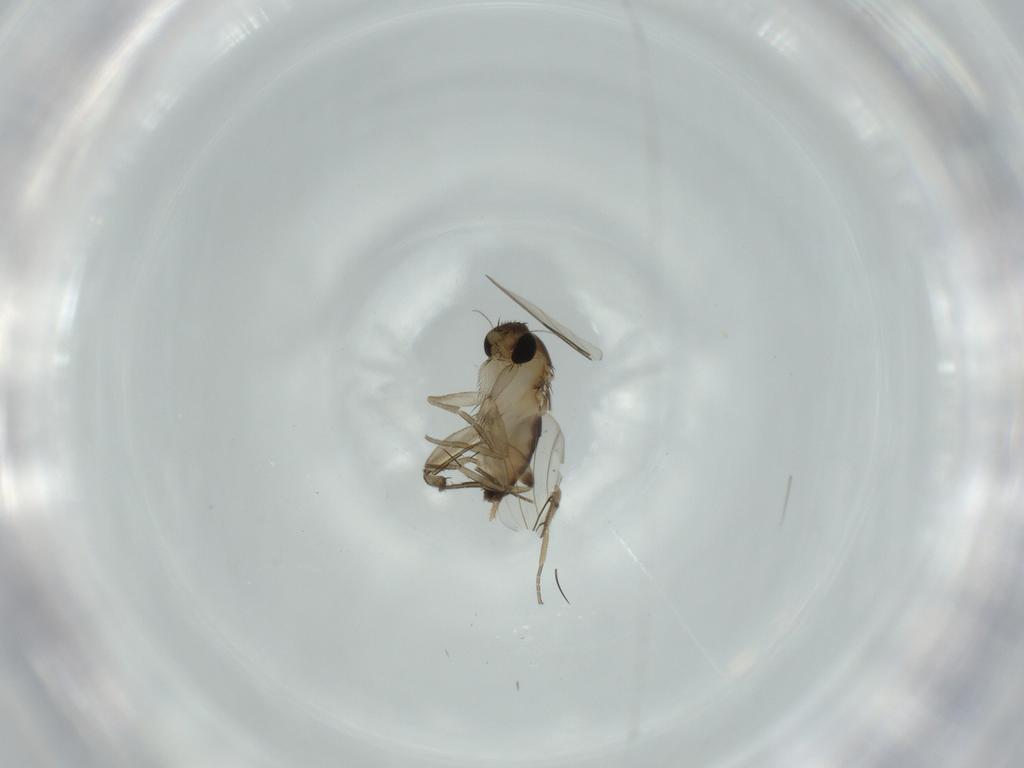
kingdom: Animalia
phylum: Arthropoda
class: Insecta
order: Diptera
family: Phoridae
